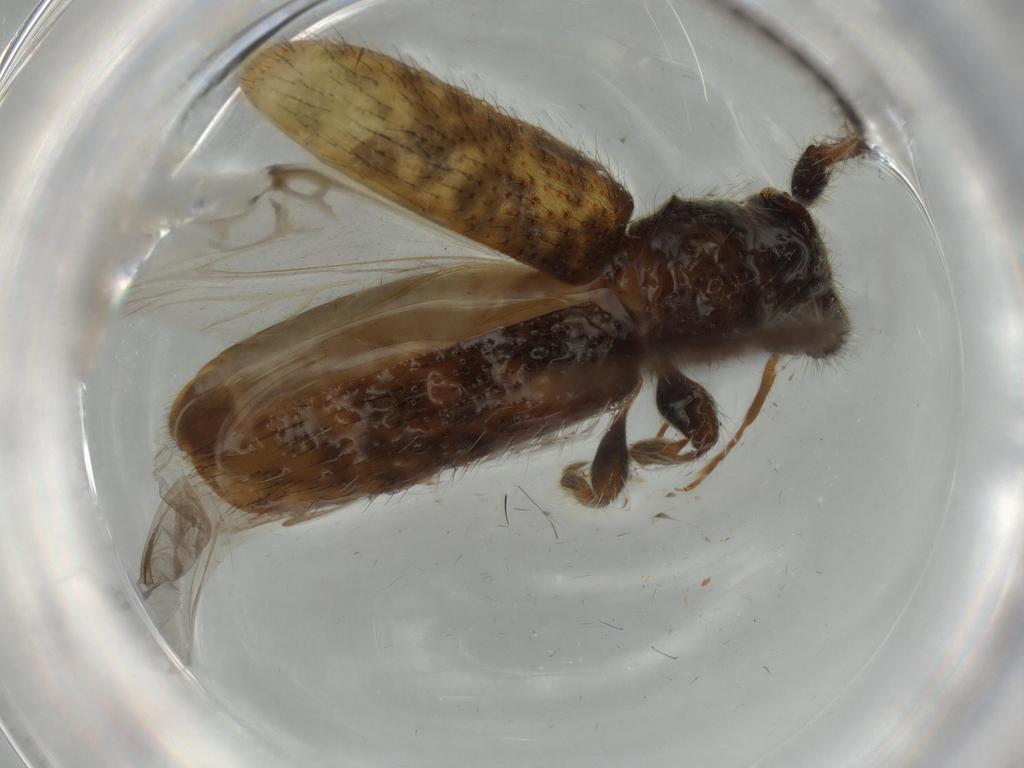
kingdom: Animalia
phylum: Arthropoda
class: Insecta
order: Coleoptera
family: Cerambycidae
